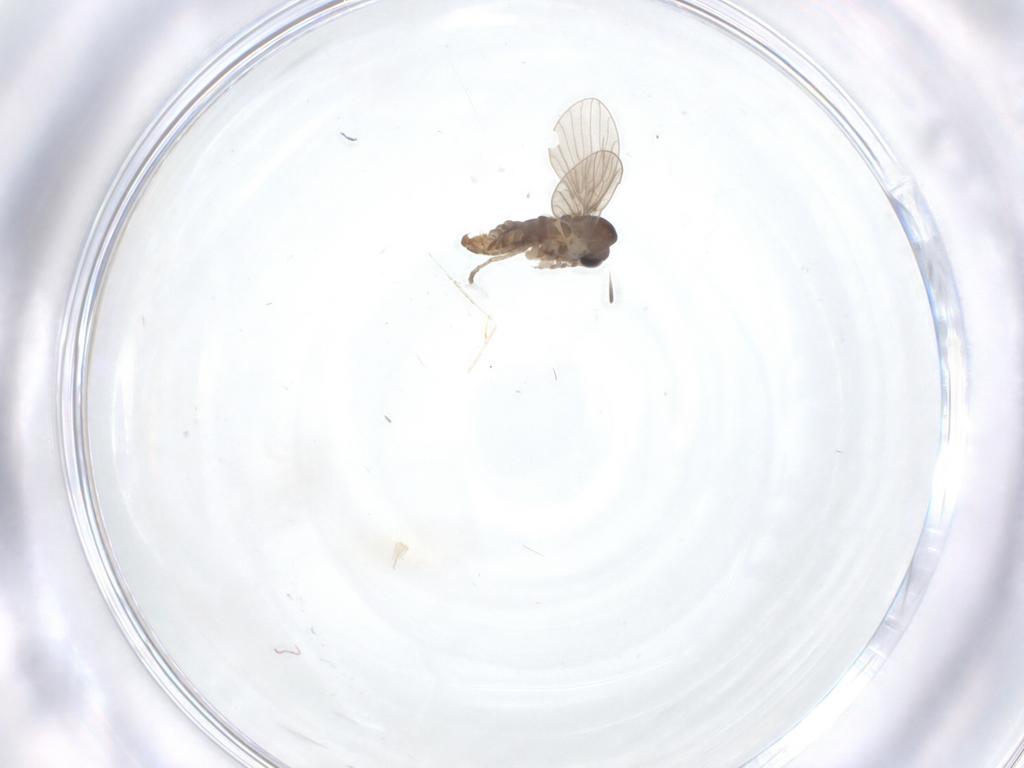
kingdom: Animalia
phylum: Arthropoda
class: Insecta
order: Diptera
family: Cecidomyiidae
